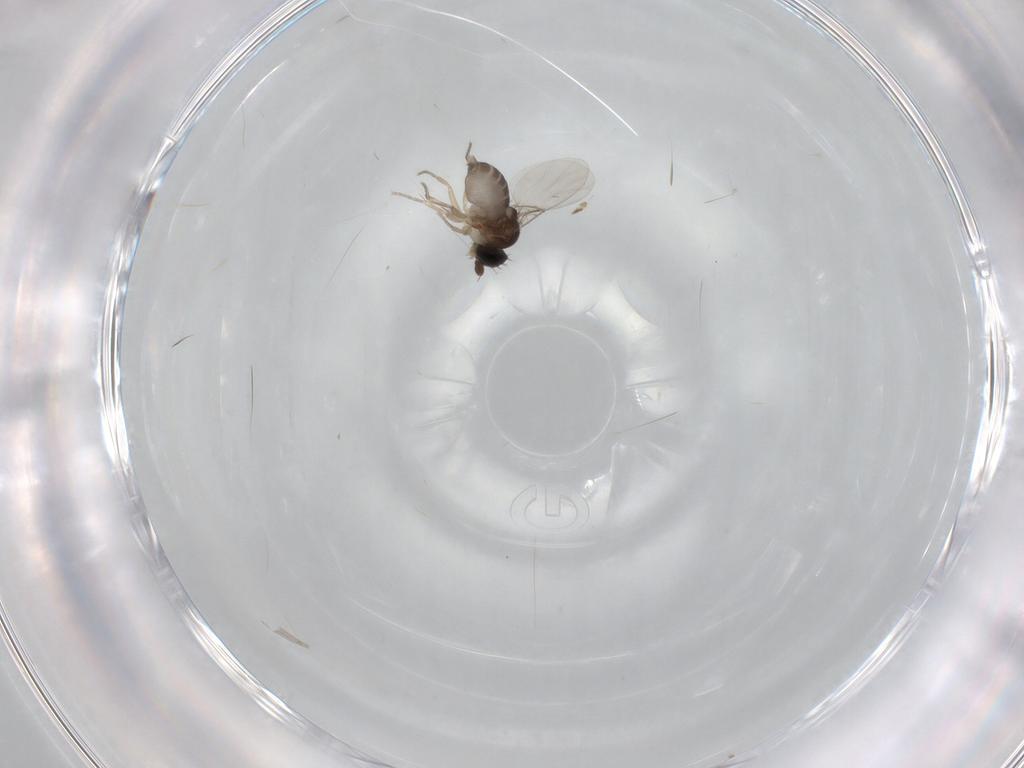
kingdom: Animalia
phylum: Arthropoda
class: Insecta
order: Diptera
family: Phoridae
